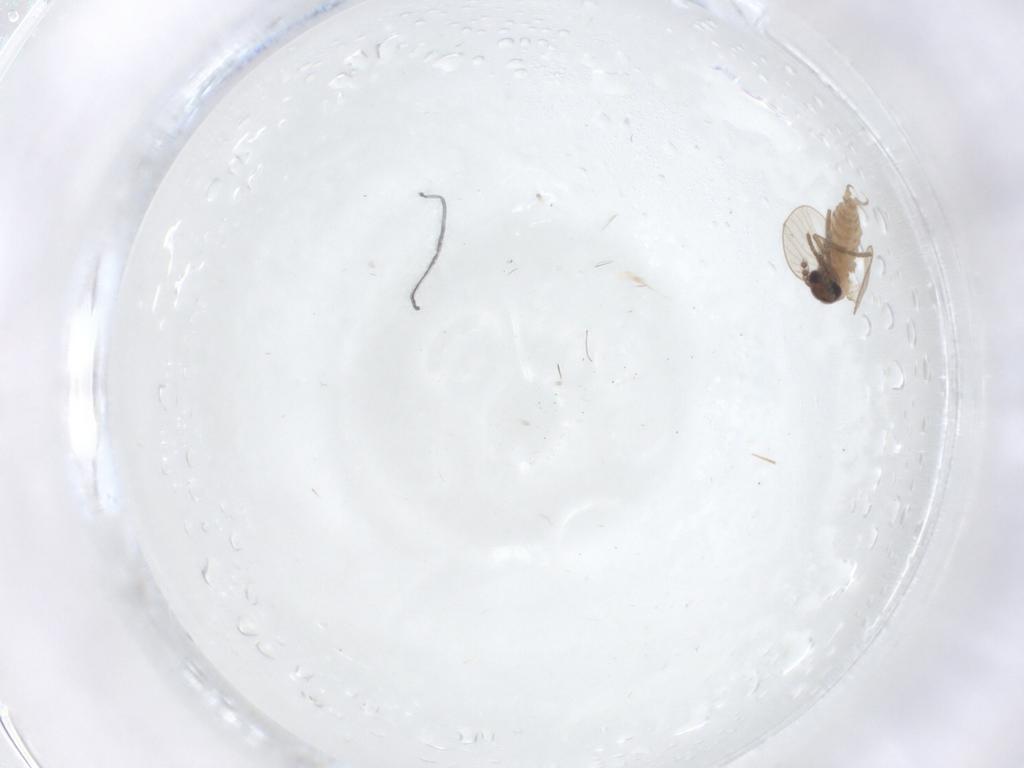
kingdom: Animalia
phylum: Arthropoda
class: Insecta
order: Diptera
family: Psychodidae
